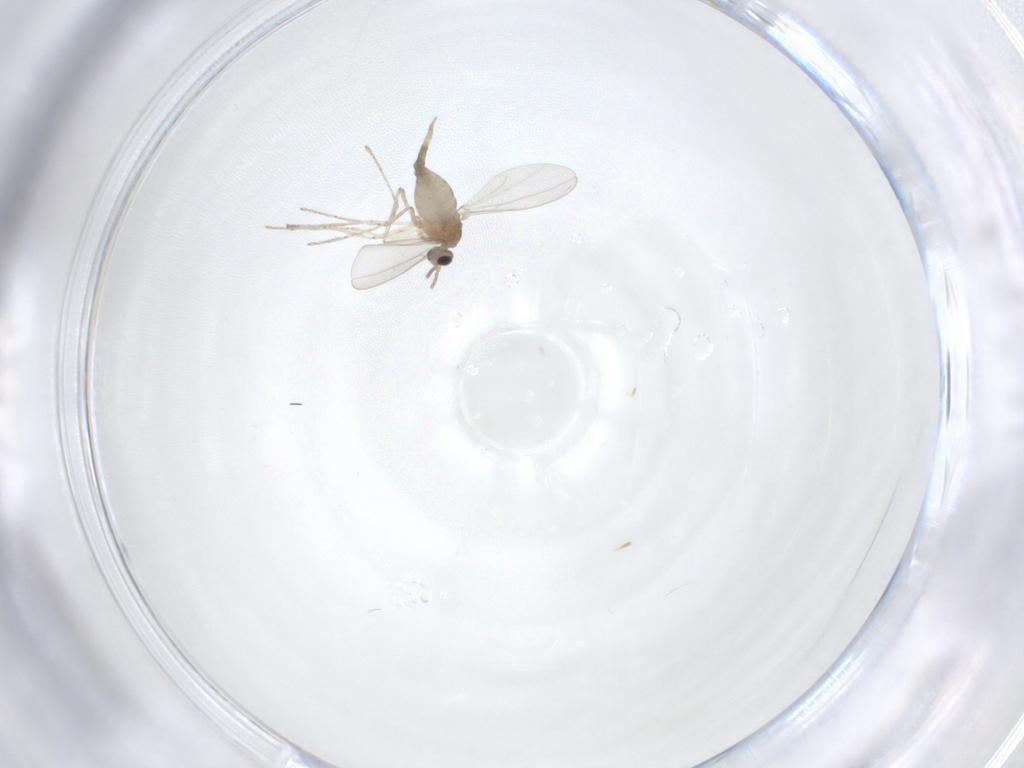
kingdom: Animalia
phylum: Arthropoda
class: Insecta
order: Diptera
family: Cecidomyiidae
